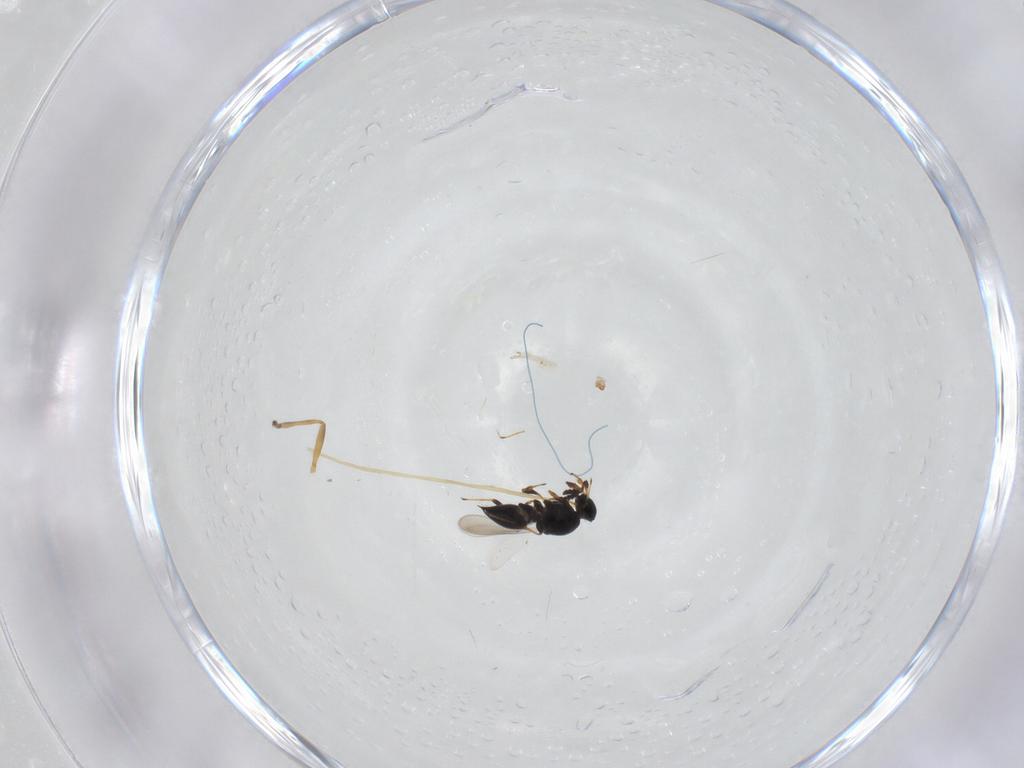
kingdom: Animalia
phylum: Arthropoda
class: Insecta
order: Hymenoptera
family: Braconidae
